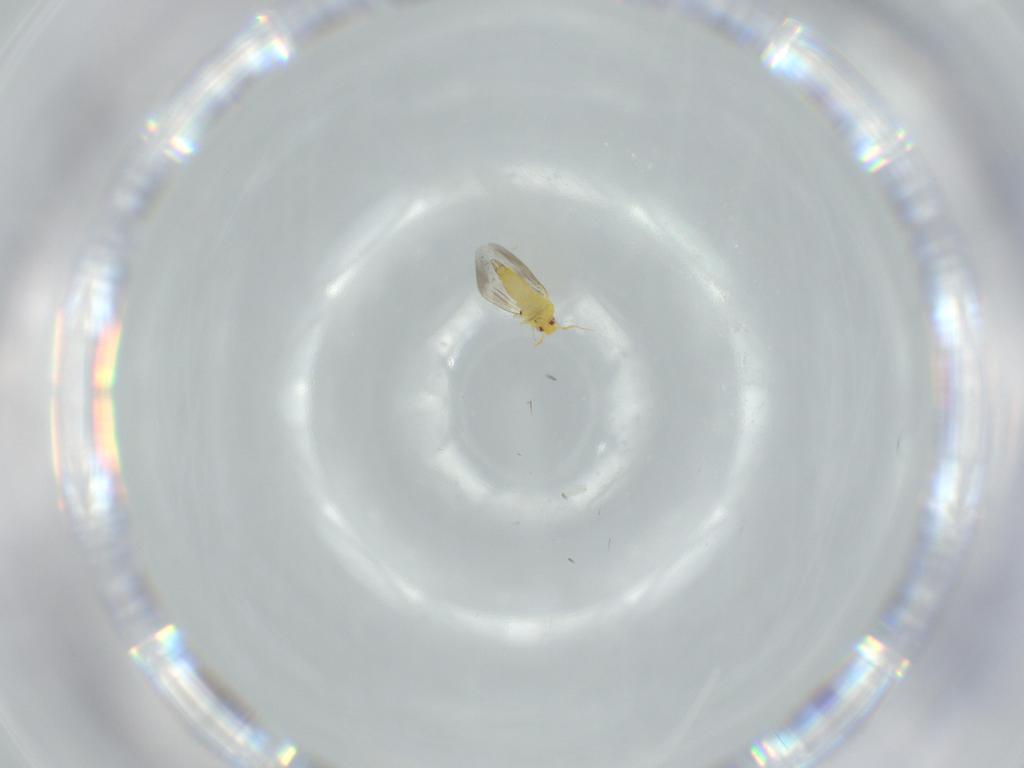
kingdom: Animalia
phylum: Arthropoda
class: Insecta
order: Hemiptera
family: Aleyrodidae
